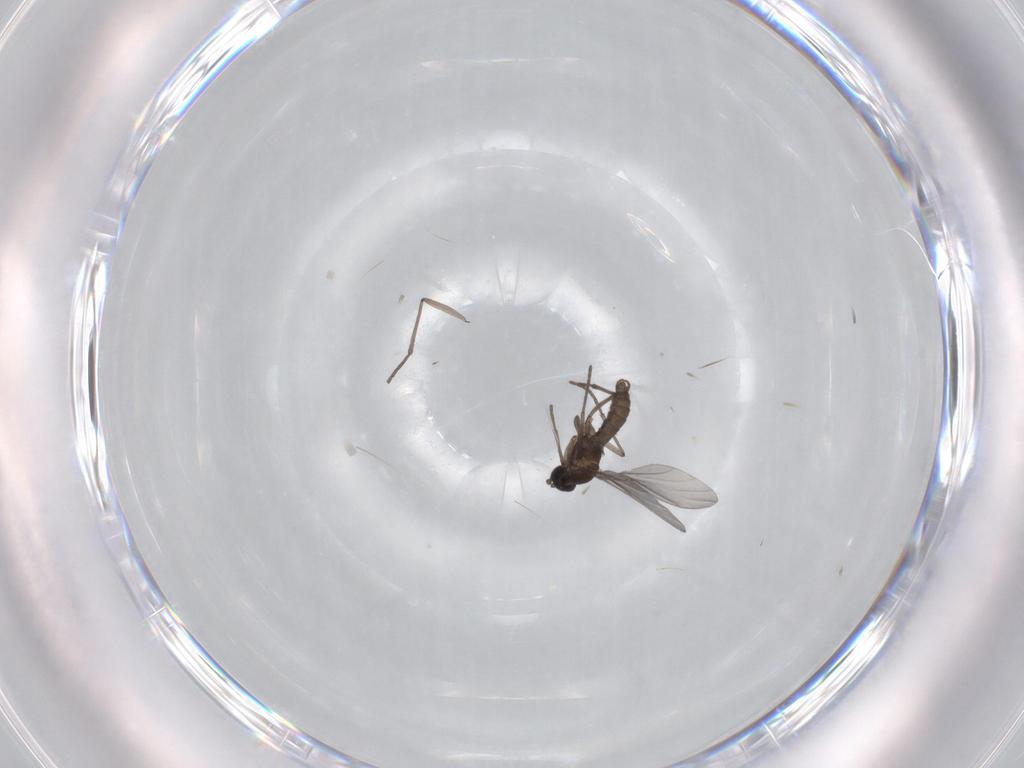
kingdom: Animalia
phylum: Arthropoda
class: Insecta
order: Diptera
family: Sciaridae
